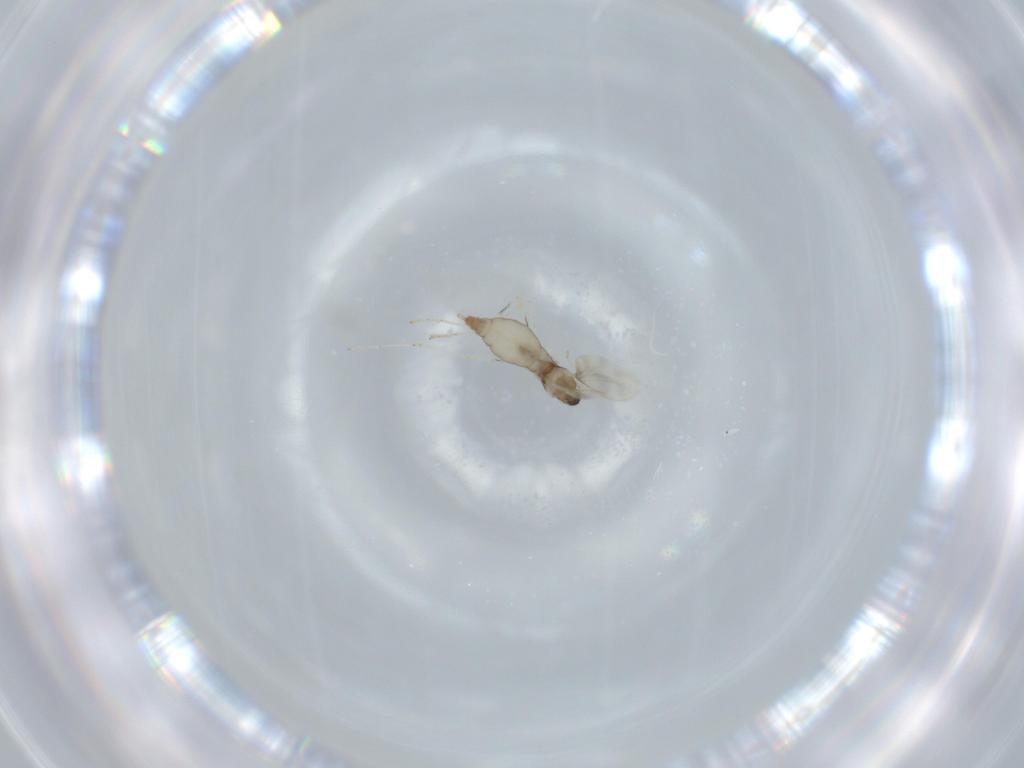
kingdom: Animalia
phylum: Arthropoda
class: Insecta
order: Diptera
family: Cecidomyiidae
